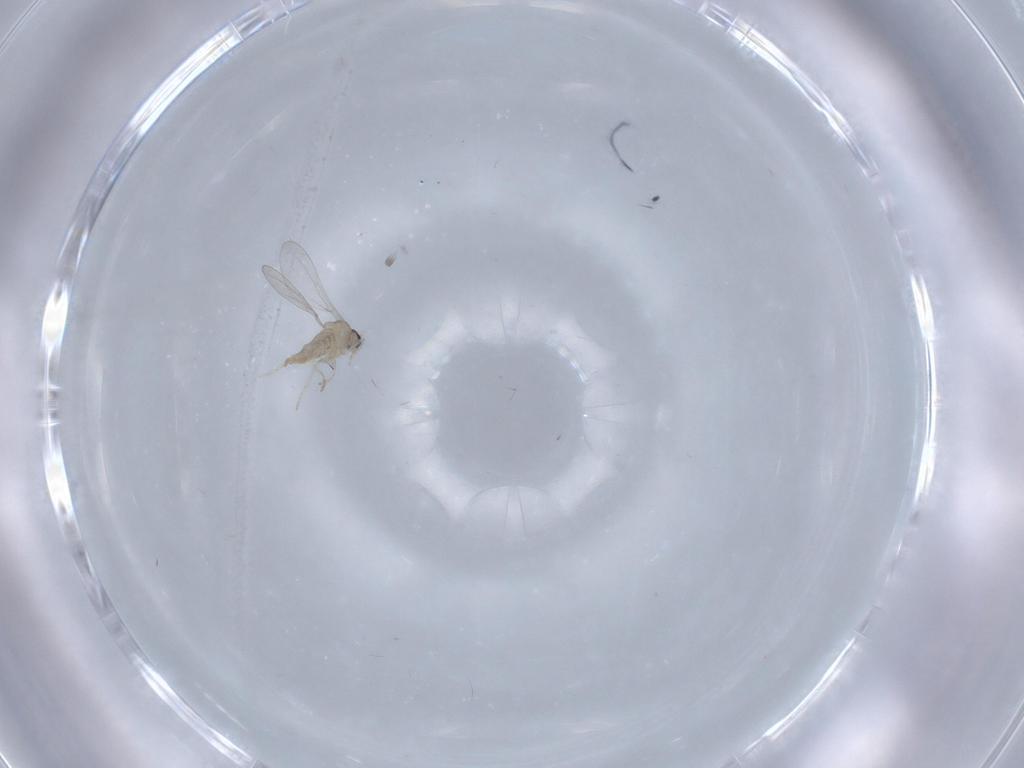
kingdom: Animalia
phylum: Arthropoda
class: Insecta
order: Diptera
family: Cecidomyiidae
